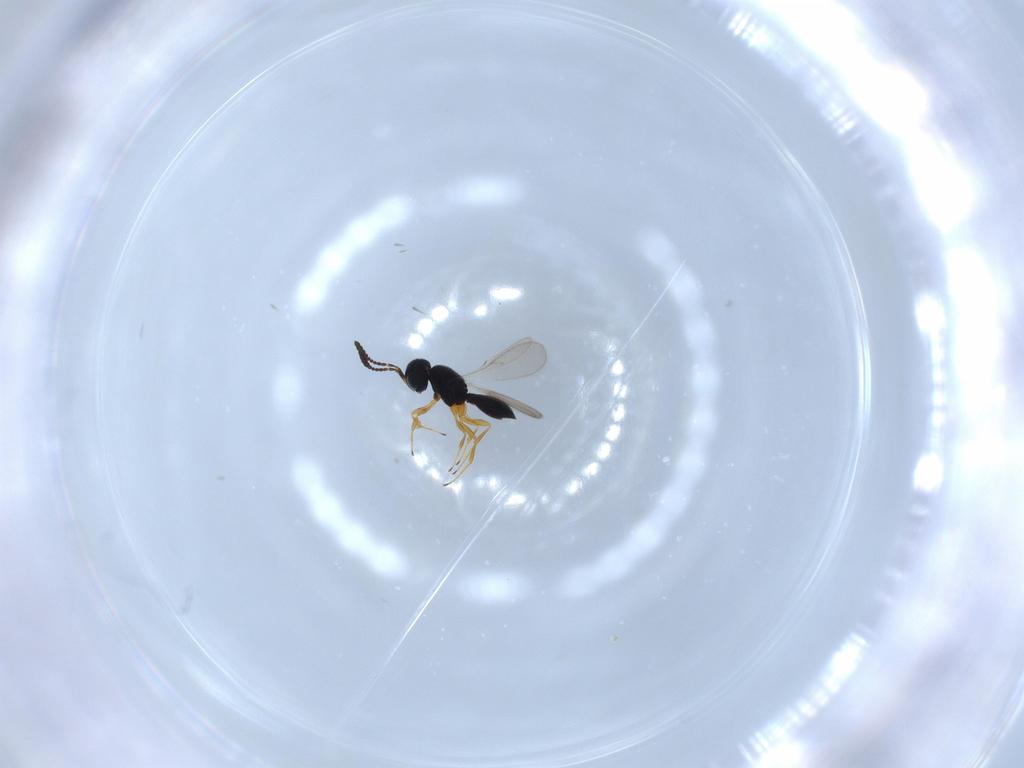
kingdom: Animalia
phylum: Arthropoda
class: Insecta
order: Hymenoptera
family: Scelionidae
